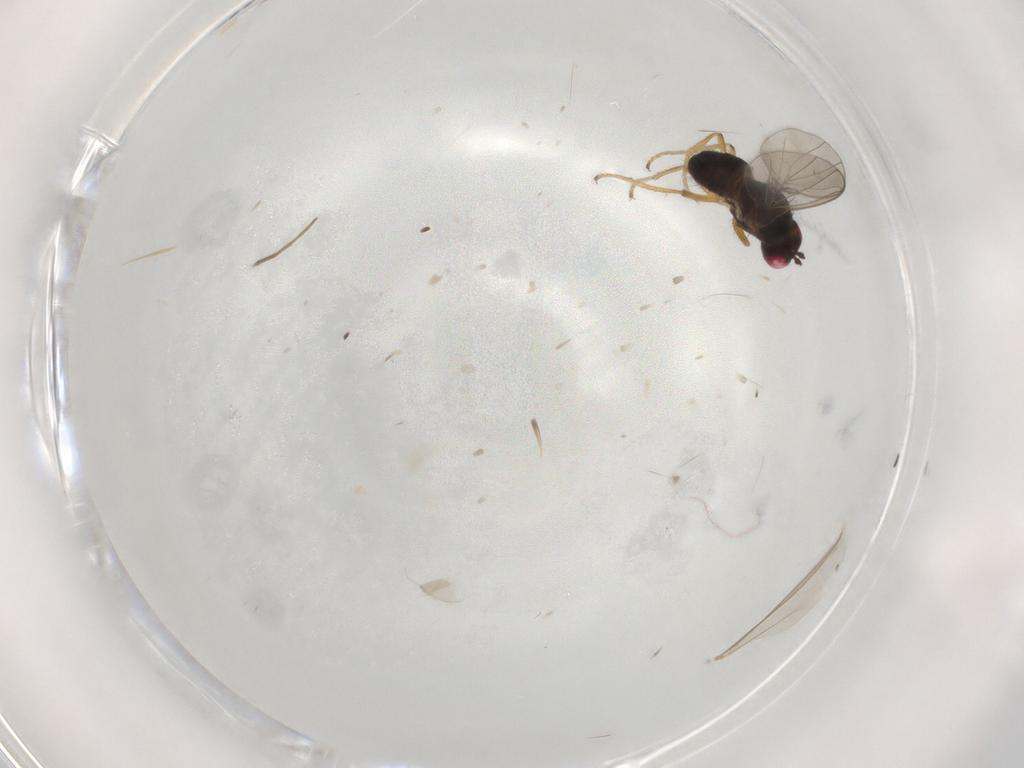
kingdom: Animalia
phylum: Arthropoda
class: Insecta
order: Diptera
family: Ephydridae
